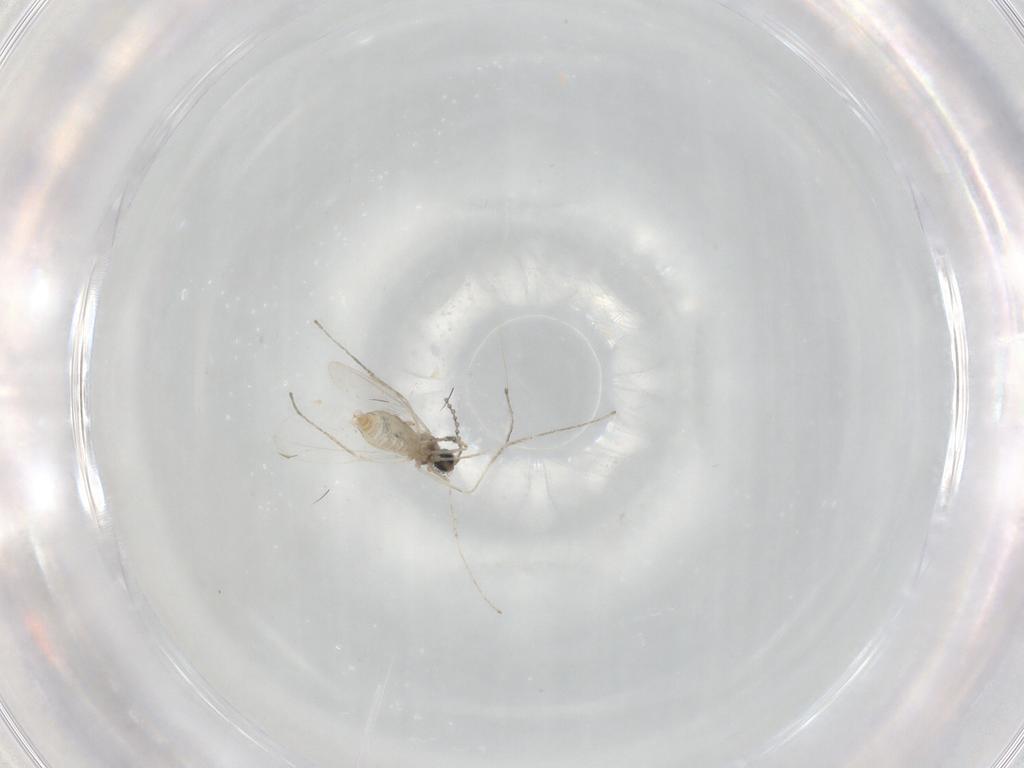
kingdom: Animalia
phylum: Arthropoda
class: Insecta
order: Diptera
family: Cecidomyiidae
